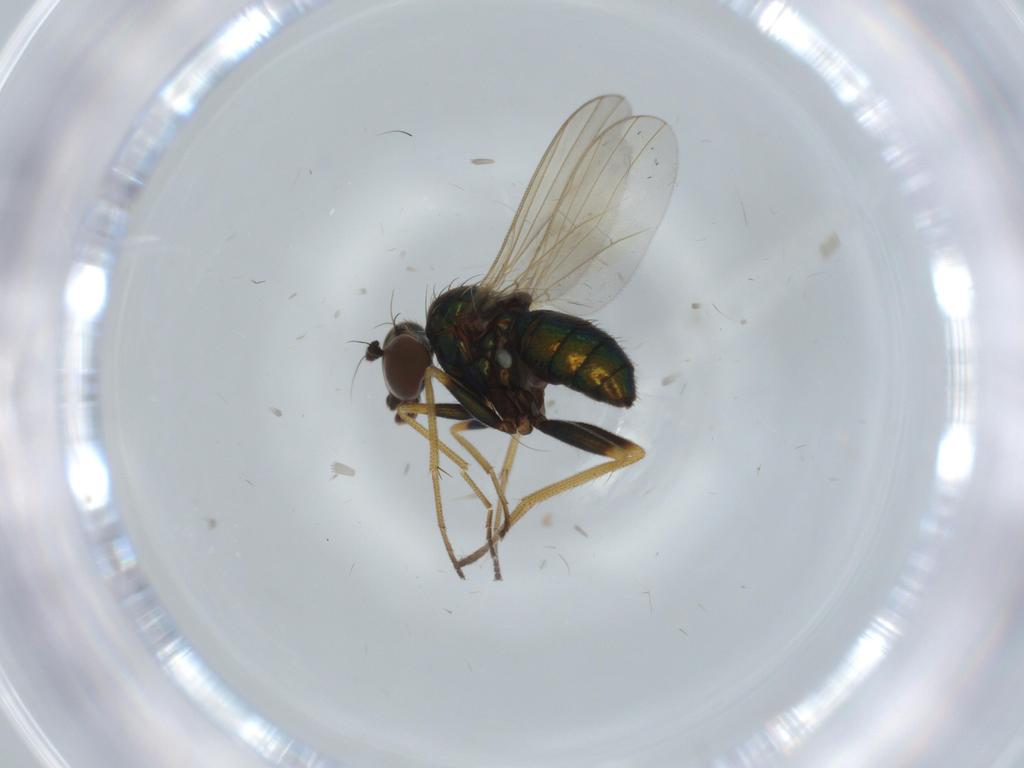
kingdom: Animalia
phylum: Arthropoda
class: Insecta
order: Diptera
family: Dolichopodidae
